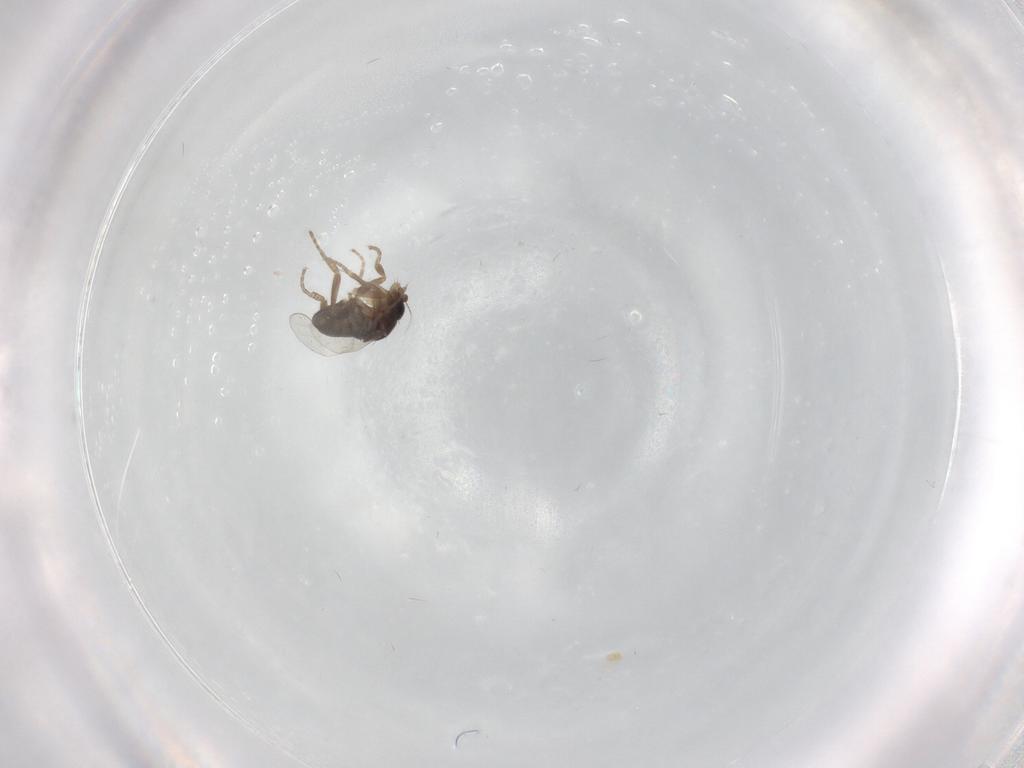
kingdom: Animalia
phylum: Arthropoda
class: Insecta
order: Diptera
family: Phoridae
